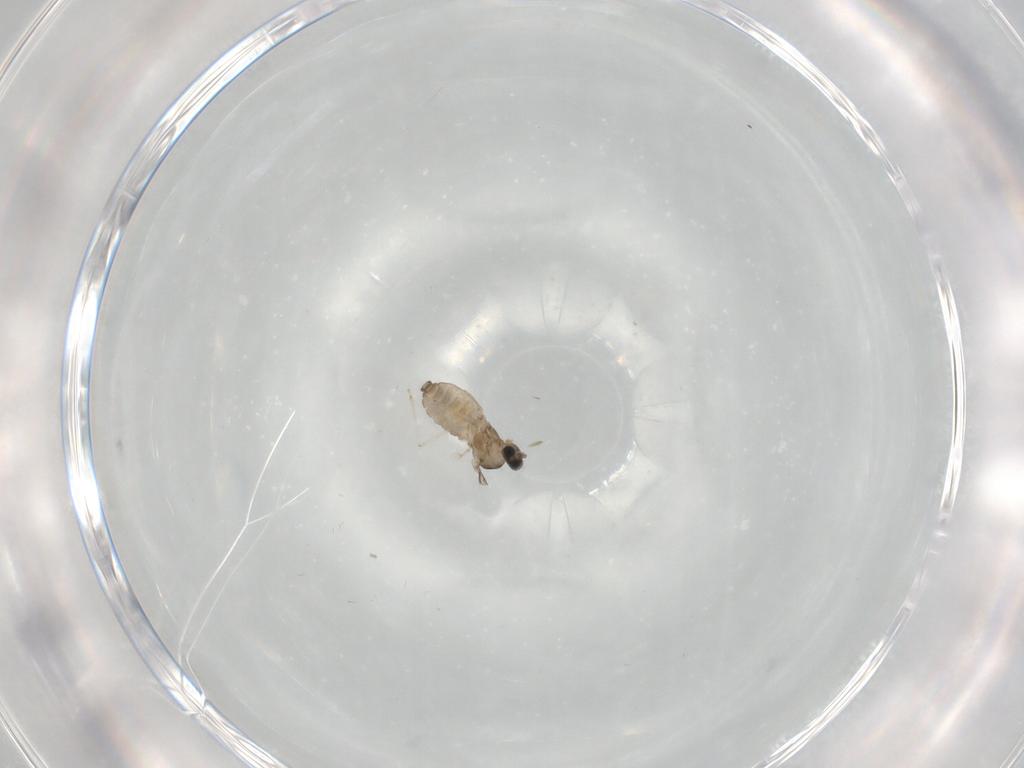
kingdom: Animalia
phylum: Arthropoda
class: Insecta
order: Diptera
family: Cecidomyiidae
